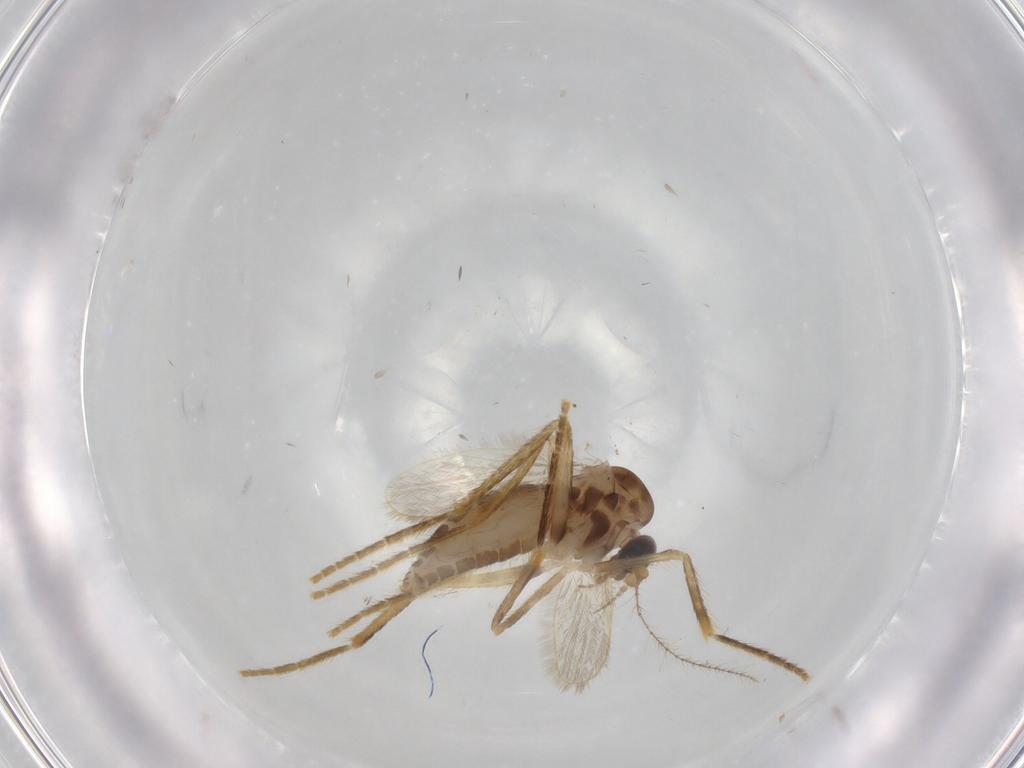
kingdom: Animalia
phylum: Arthropoda
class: Insecta
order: Diptera
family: Corethrellidae
